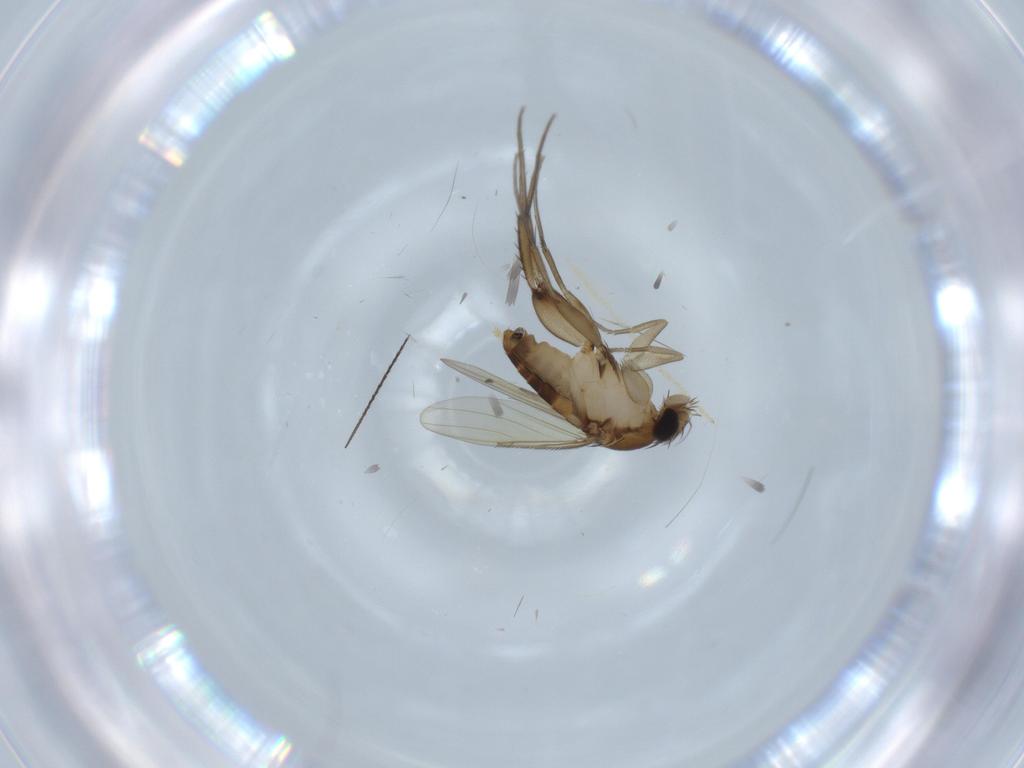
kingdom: Animalia
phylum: Arthropoda
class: Insecta
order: Diptera
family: Phoridae
